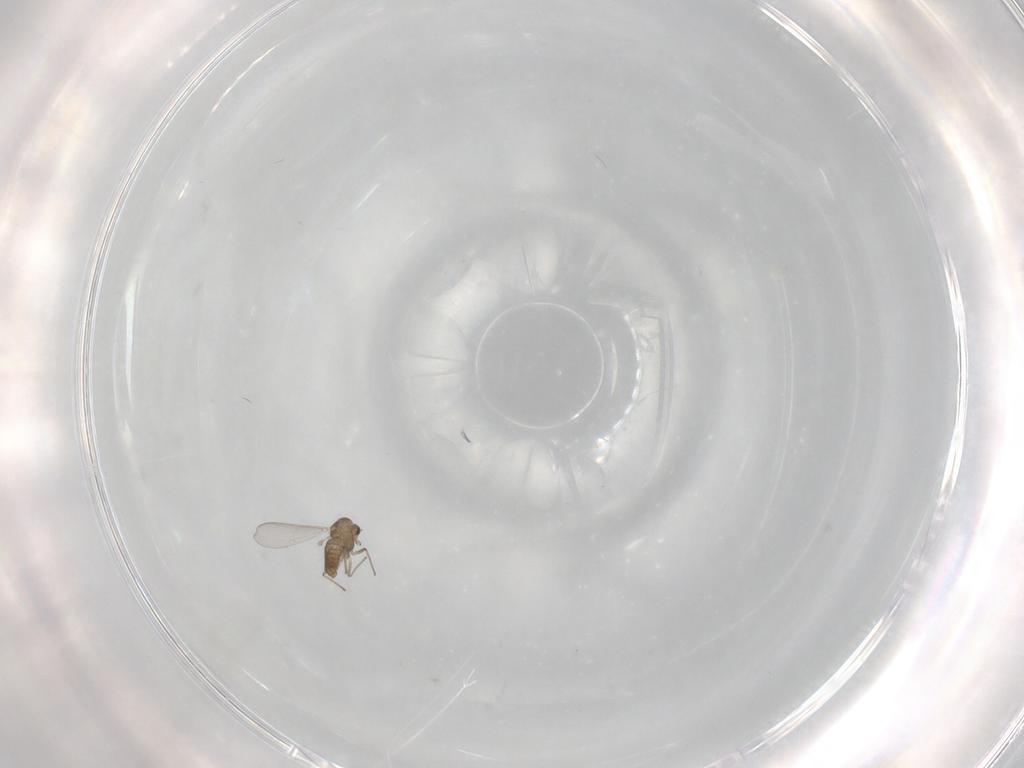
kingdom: Animalia
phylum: Arthropoda
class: Insecta
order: Diptera
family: Chironomidae
